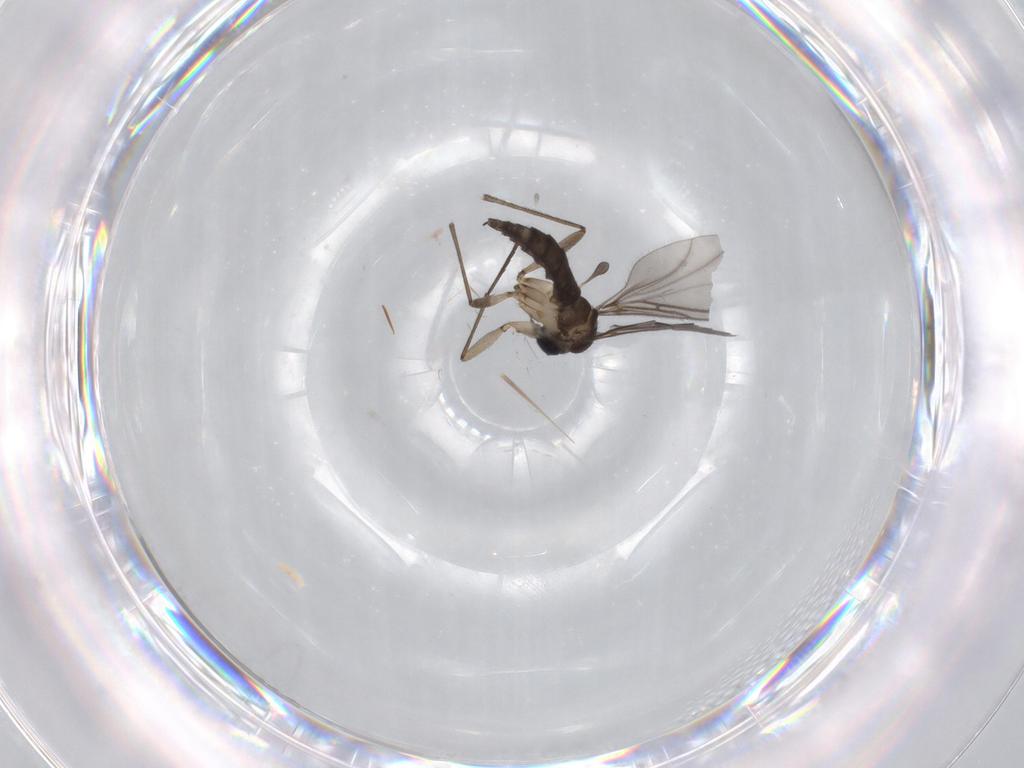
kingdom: Animalia
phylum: Arthropoda
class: Insecta
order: Diptera
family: Sciaridae
